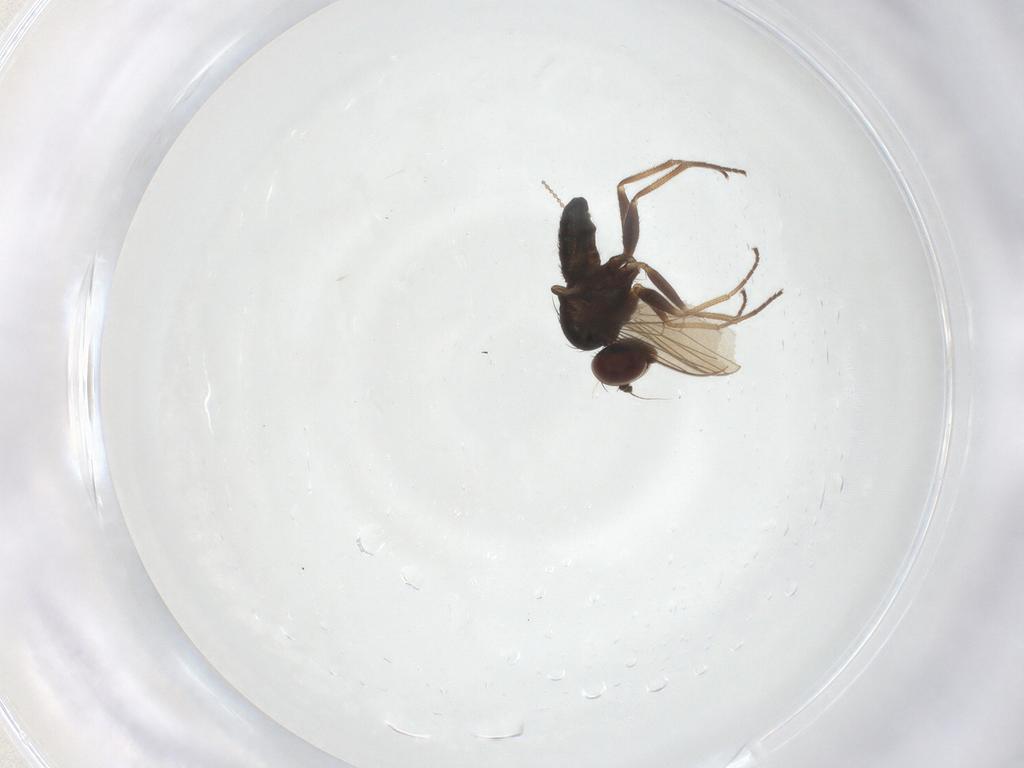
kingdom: Animalia
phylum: Arthropoda
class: Insecta
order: Diptera
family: Dolichopodidae
